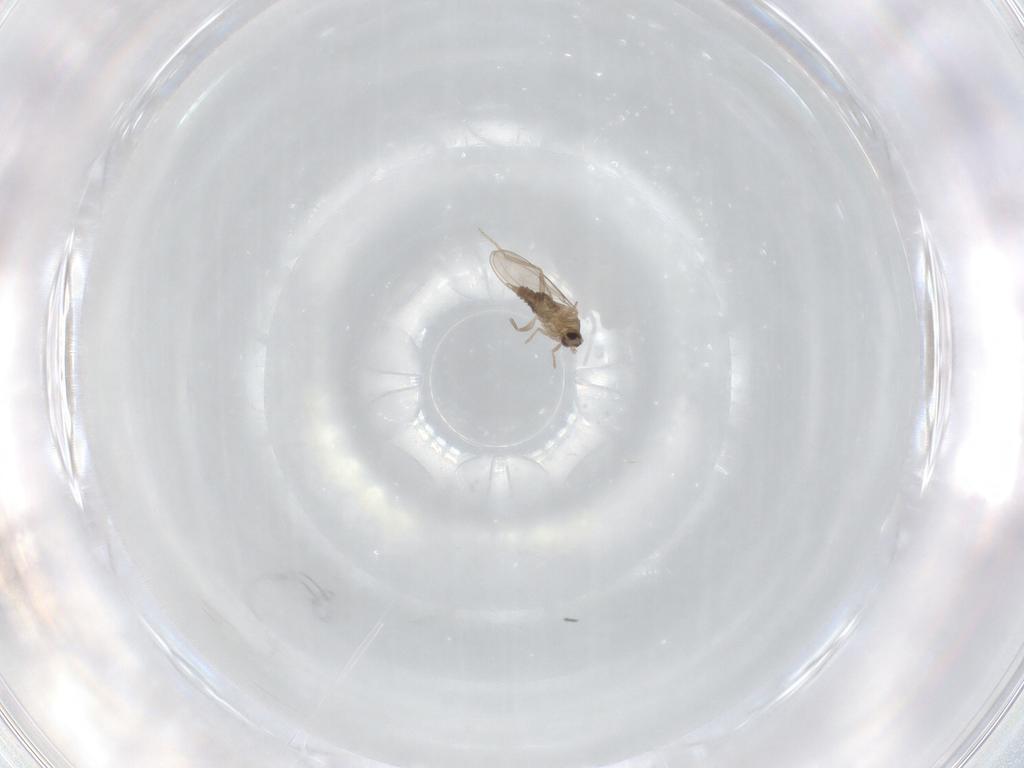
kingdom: Animalia
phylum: Arthropoda
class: Insecta
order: Diptera
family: Cecidomyiidae
